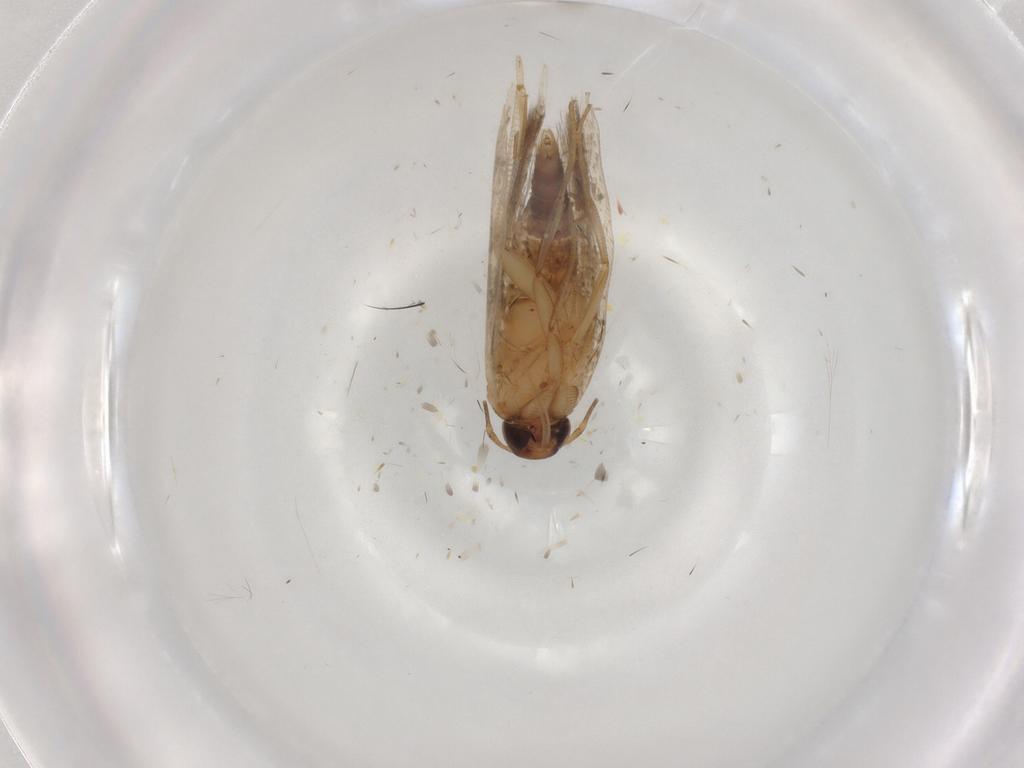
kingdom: Animalia
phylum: Arthropoda
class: Insecta
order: Lepidoptera
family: Gelechiidae
